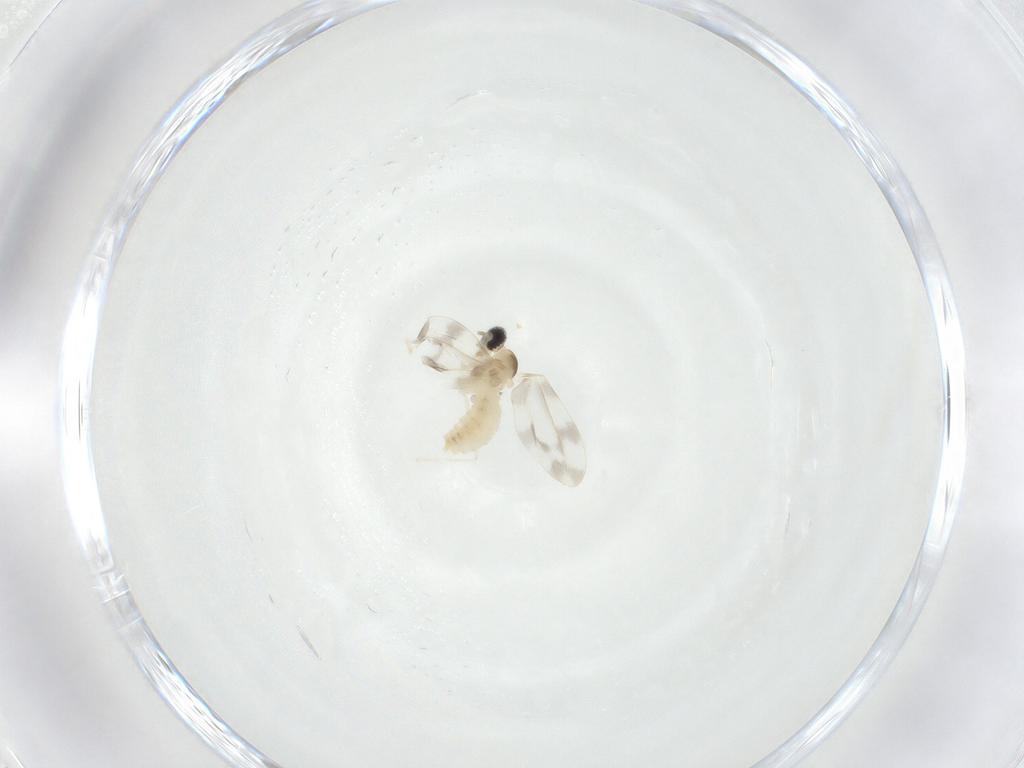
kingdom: Animalia
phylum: Arthropoda
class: Insecta
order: Diptera
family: Cecidomyiidae
